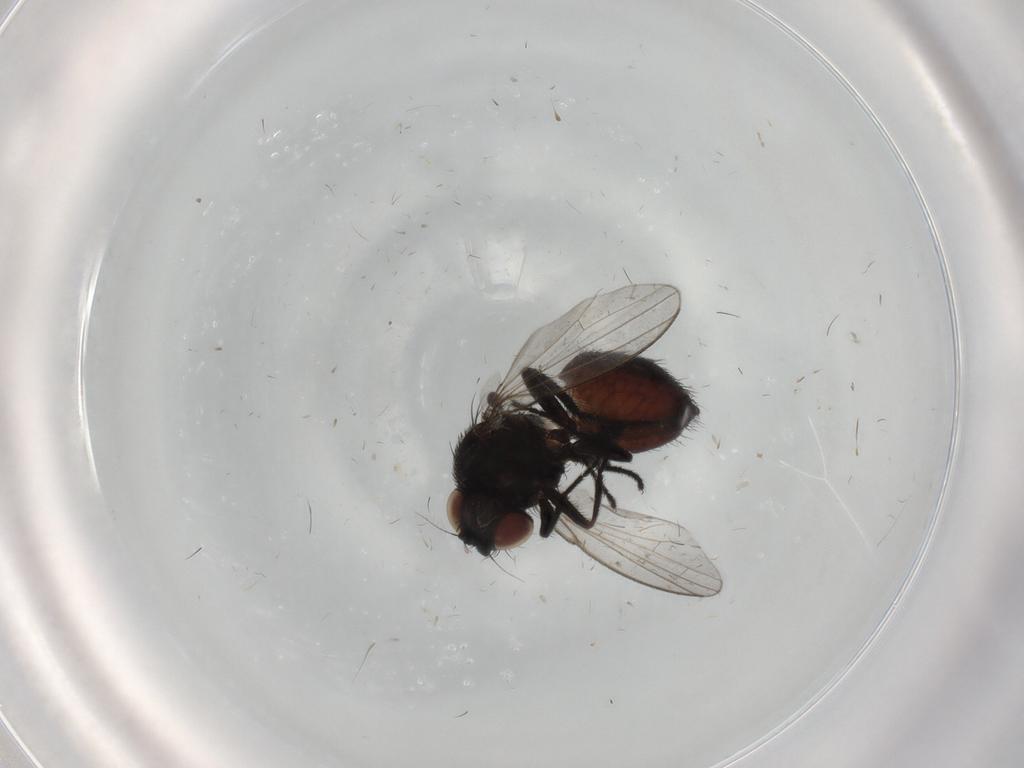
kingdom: Animalia
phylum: Arthropoda
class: Insecta
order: Diptera
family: Milichiidae
